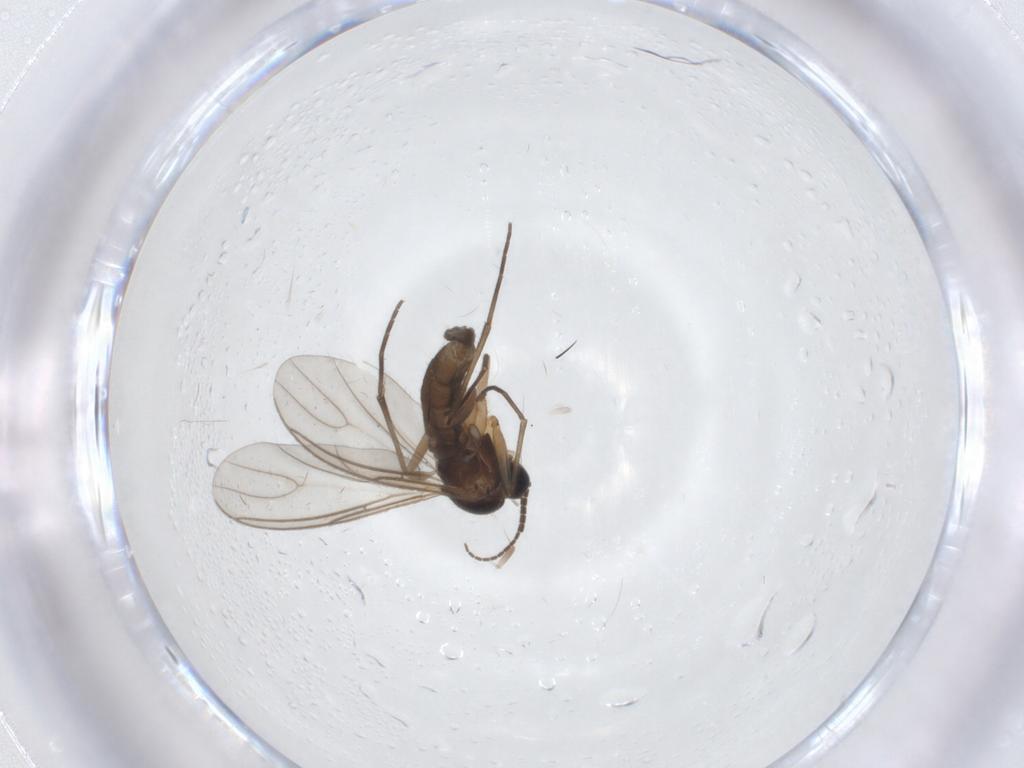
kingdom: Animalia
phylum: Arthropoda
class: Insecta
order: Diptera
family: Sciaridae
